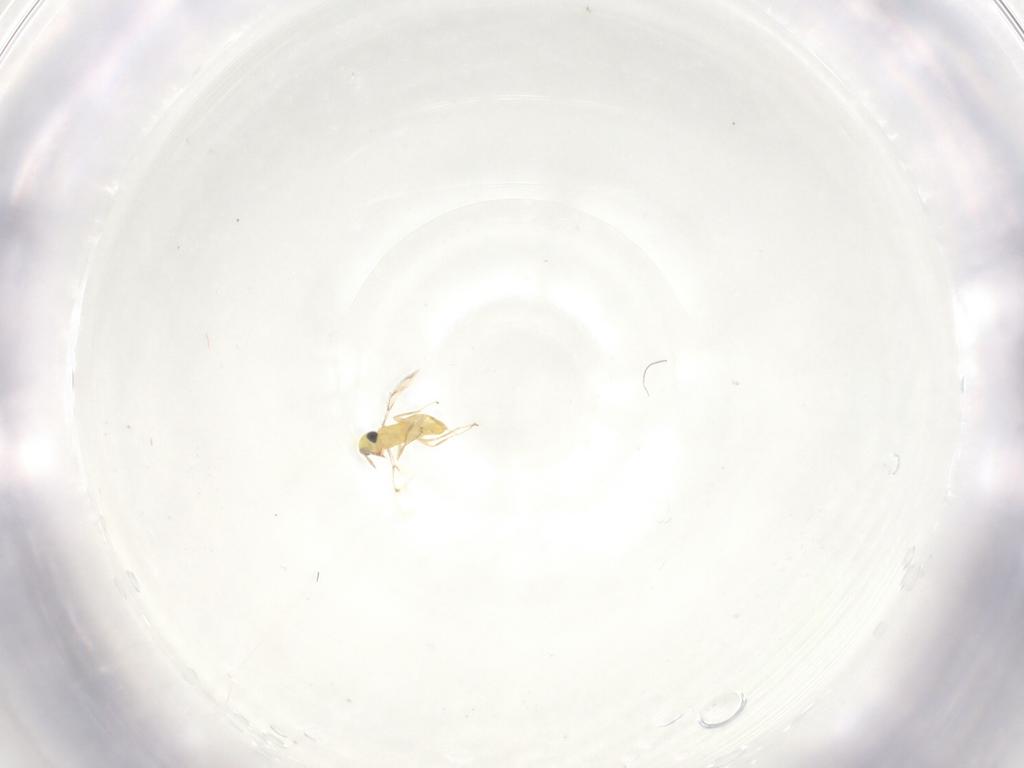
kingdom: Animalia
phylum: Arthropoda
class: Insecta
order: Hymenoptera
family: Trichogrammatidae
